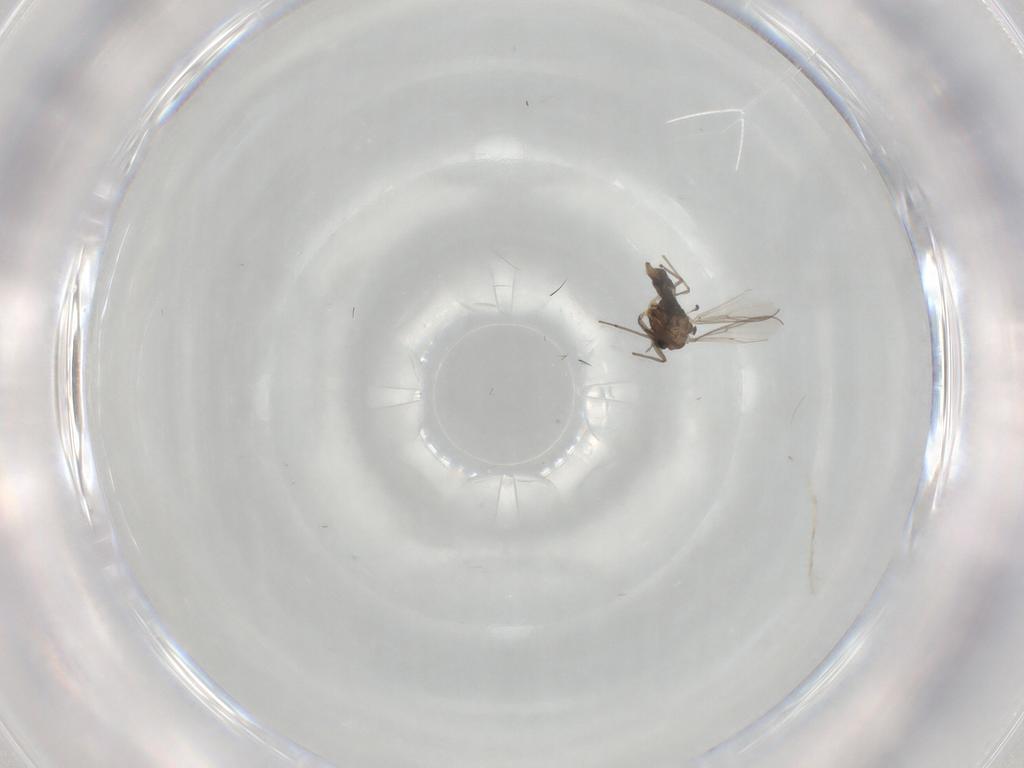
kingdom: Animalia
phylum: Arthropoda
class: Insecta
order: Diptera
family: Chironomidae
